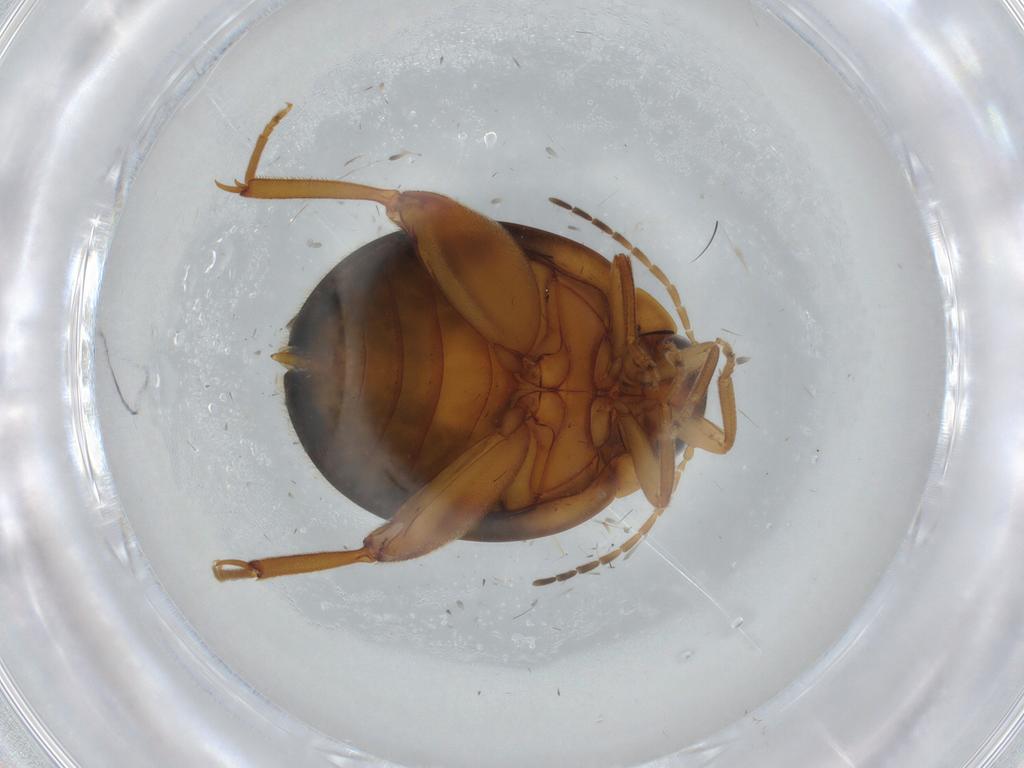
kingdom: Animalia
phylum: Arthropoda
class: Insecta
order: Coleoptera
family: Scirtidae
